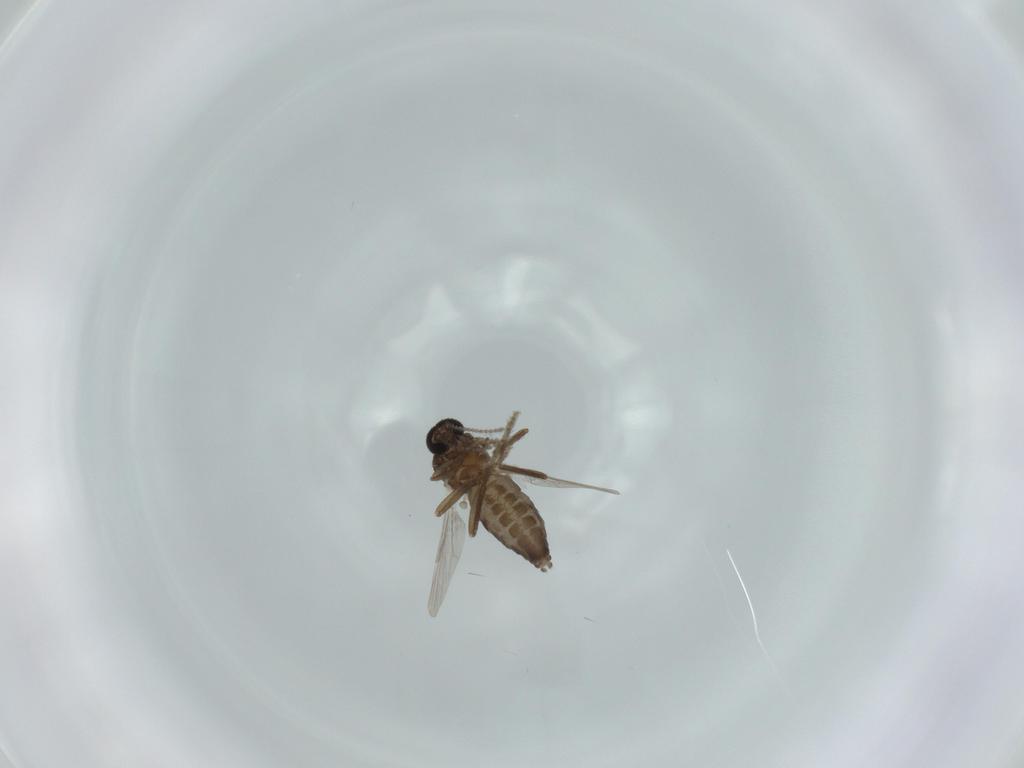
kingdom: Animalia
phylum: Arthropoda
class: Insecta
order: Diptera
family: Ceratopogonidae
